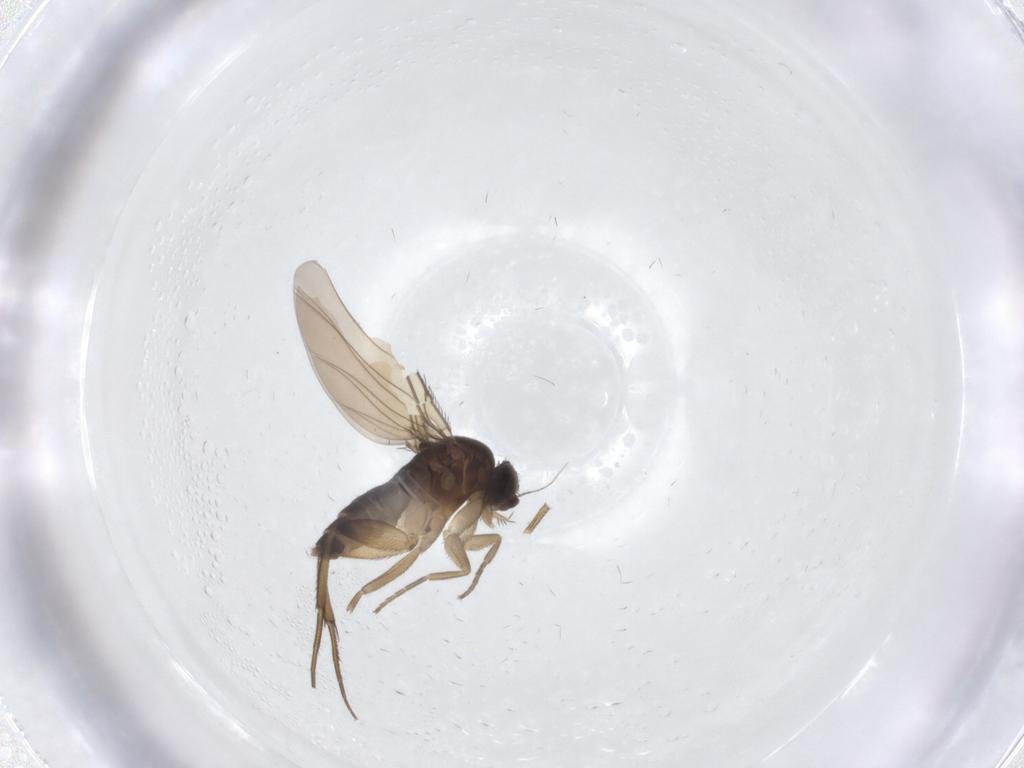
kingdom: Animalia
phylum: Arthropoda
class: Insecta
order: Diptera
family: Phoridae
